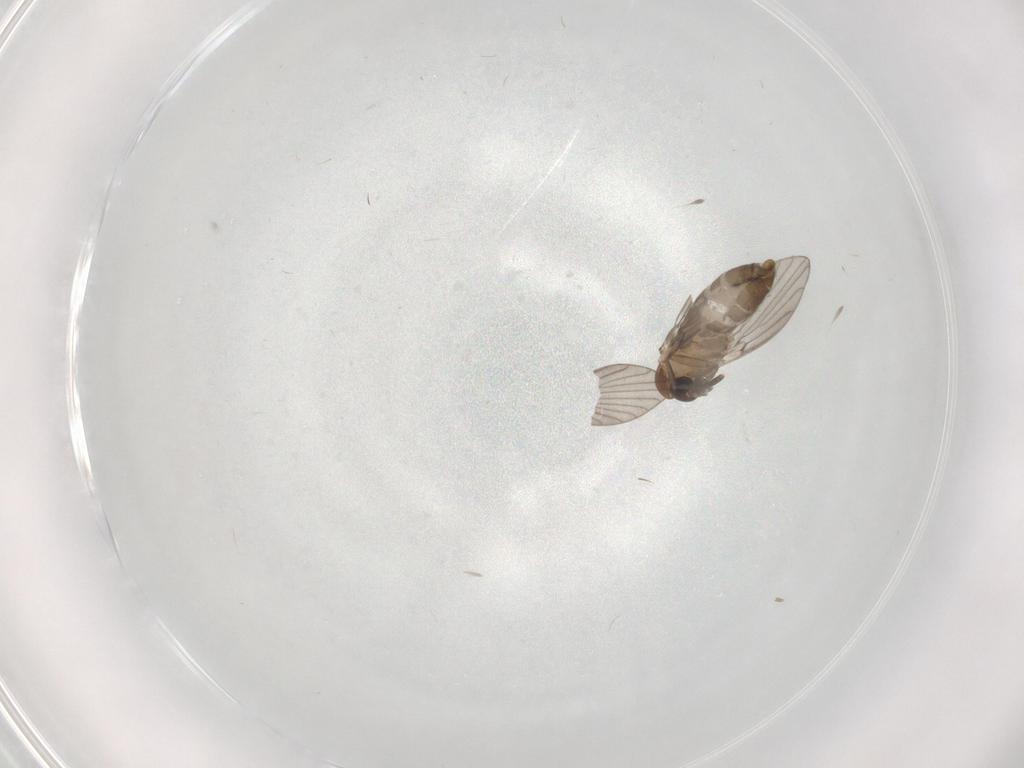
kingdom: Animalia
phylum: Arthropoda
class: Insecta
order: Diptera
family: Psychodidae
